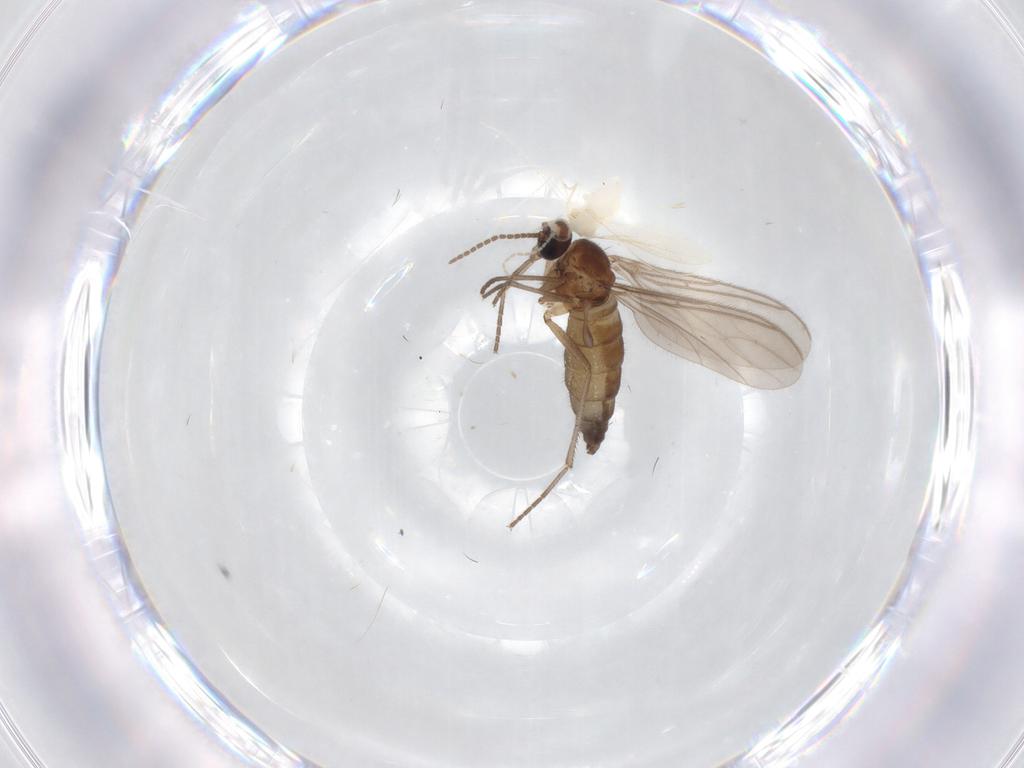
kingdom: Animalia
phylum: Arthropoda
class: Insecta
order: Diptera
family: Cecidomyiidae
